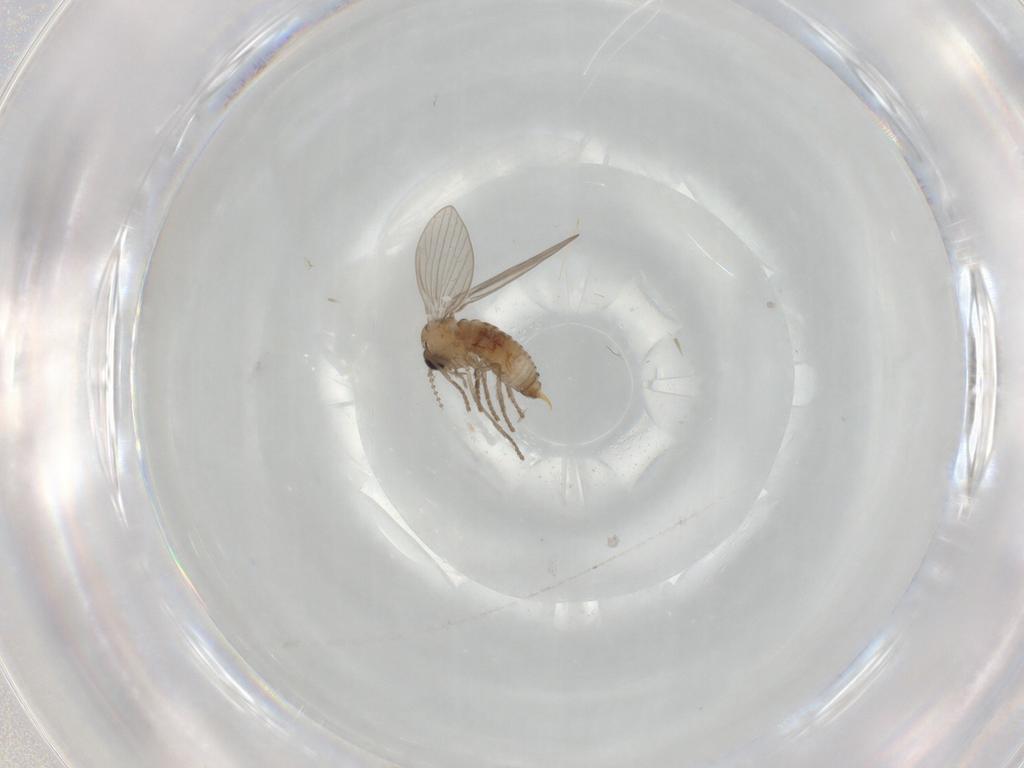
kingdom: Animalia
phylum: Arthropoda
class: Insecta
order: Diptera
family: Psychodidae
